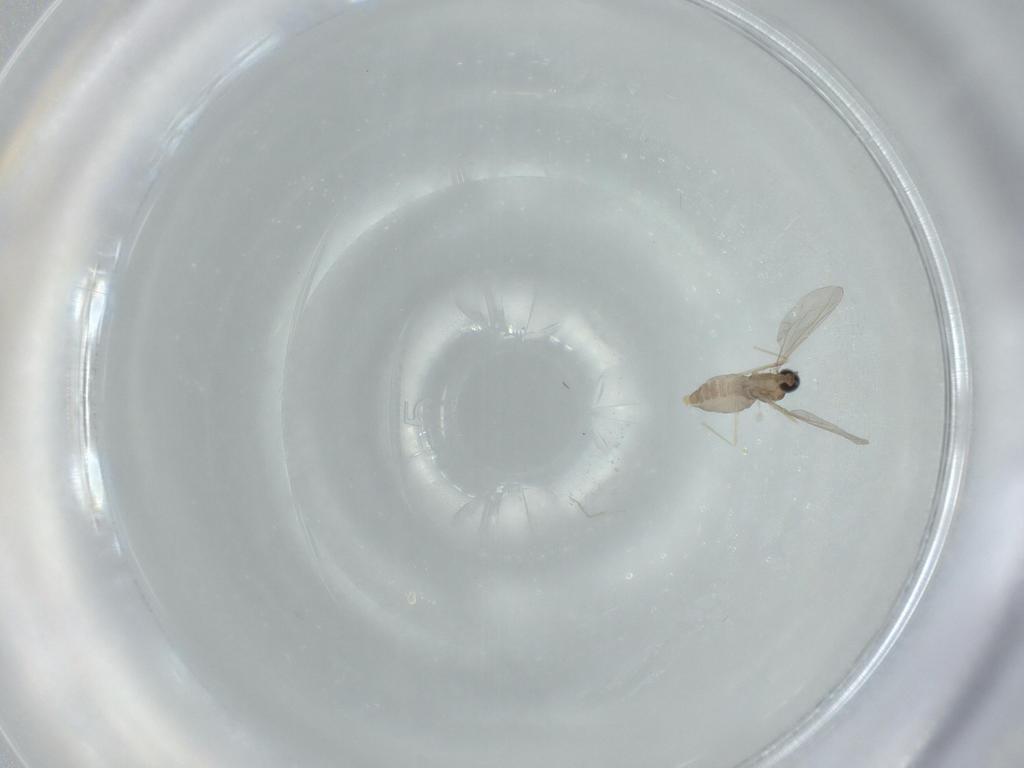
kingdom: Animalia
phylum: Arthropoda
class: Insecta
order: Diptera
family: Cecidomyiidae
